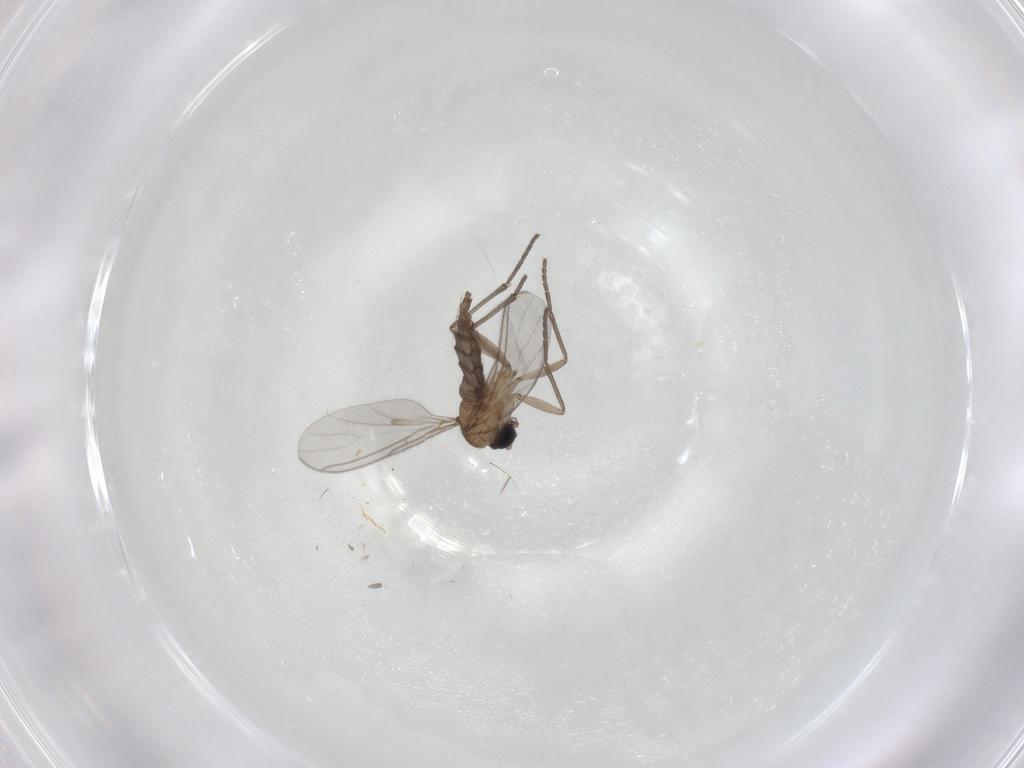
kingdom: Animalia
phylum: Arthropoda
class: Insecta
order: Diptera
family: Sciaridae
